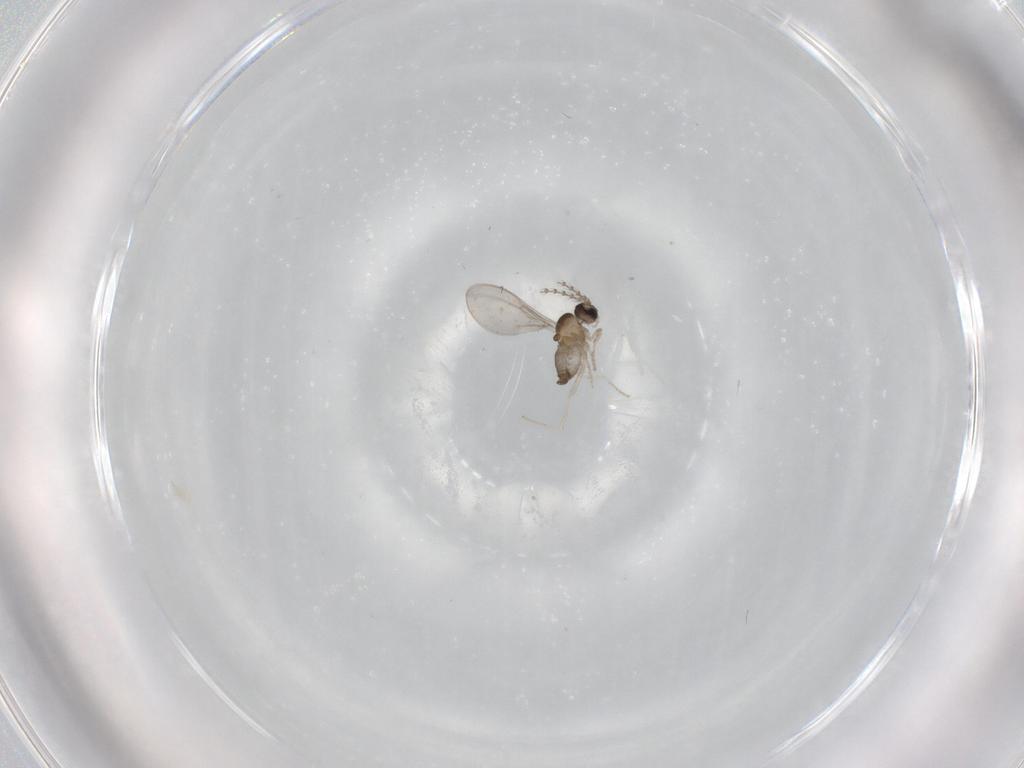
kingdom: Animalia
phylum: Arthropoda
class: Insecta
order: Diptera
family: Cecidomyiidae
